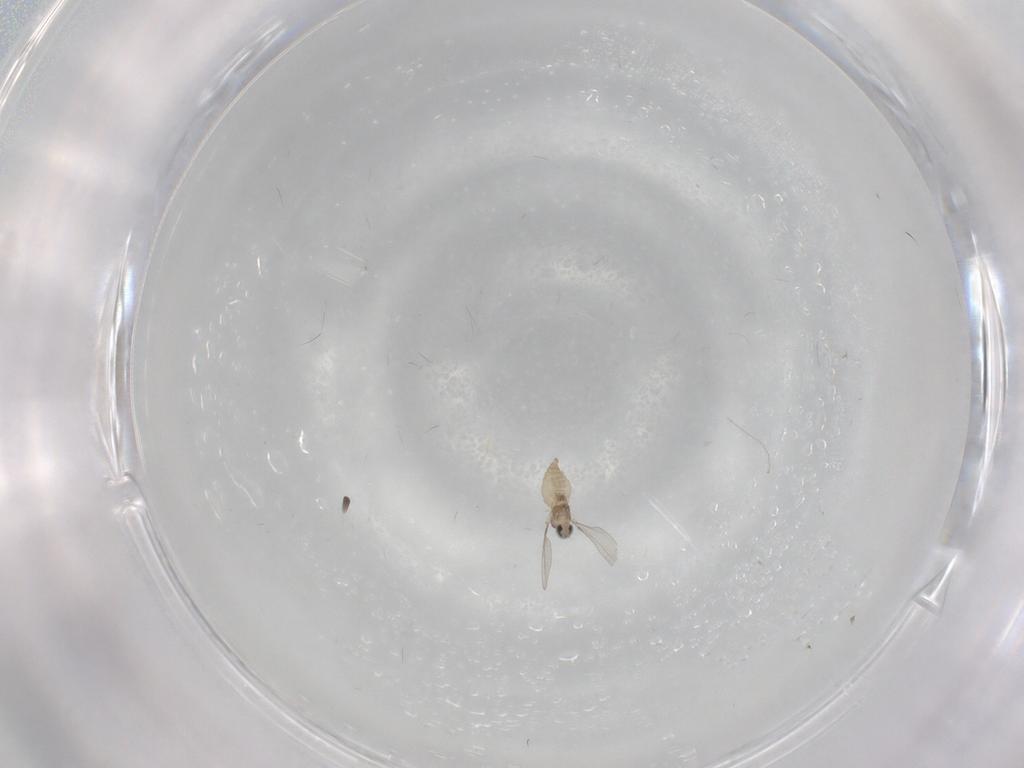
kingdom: Animalia
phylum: Arthropoda
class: Insecta
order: Diptera
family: Cecidomyiidae
